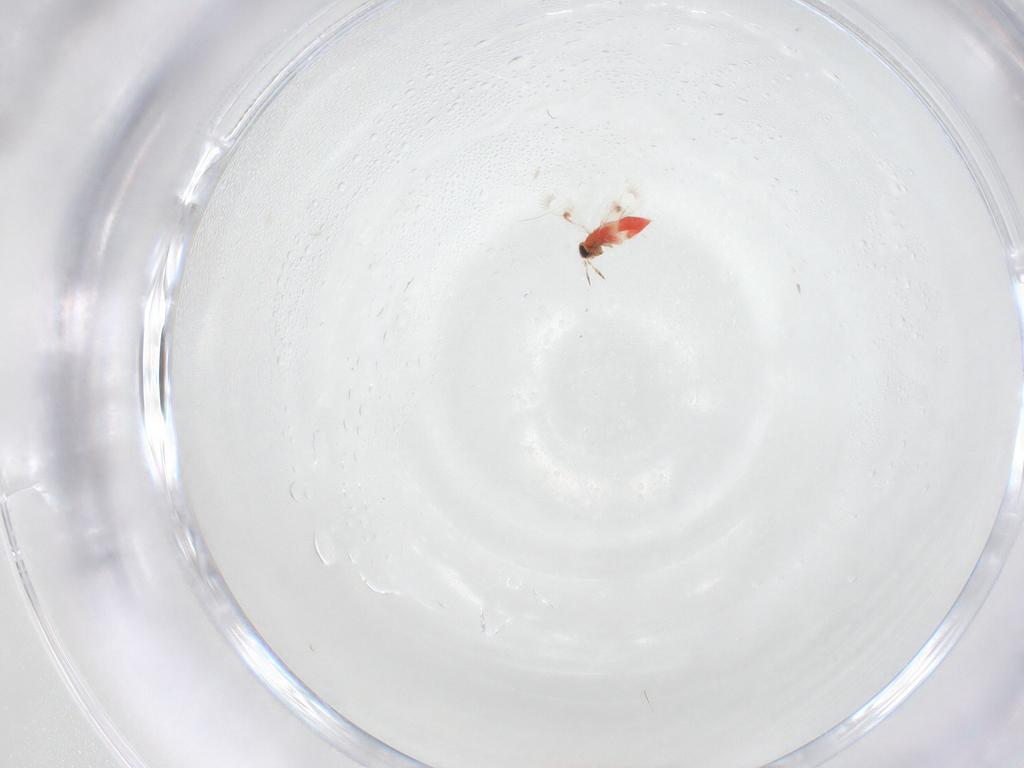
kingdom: Animalia
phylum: Arthropoda
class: Insecta
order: Hymenoptera
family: Trichogrammatidae
